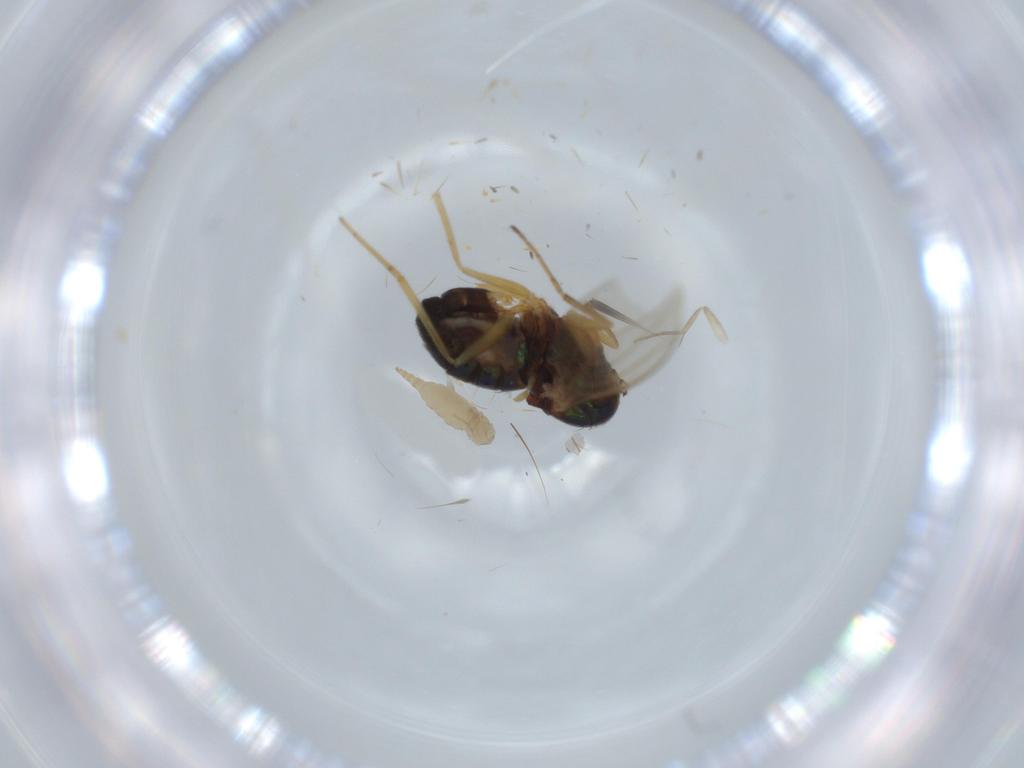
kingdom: Animalia
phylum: Arthropoda
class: Insecta
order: Diptera
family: Dolichopodidae
